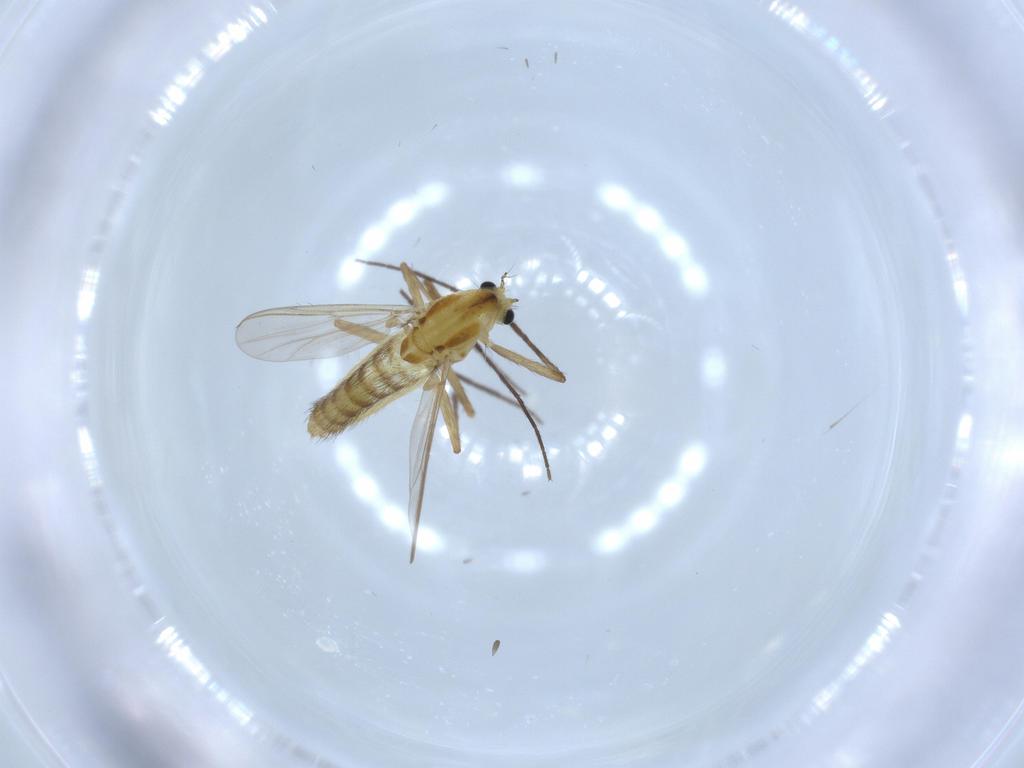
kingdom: Animalia
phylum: Arthropoda
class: Insecta
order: Diptera
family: Chironomidae
